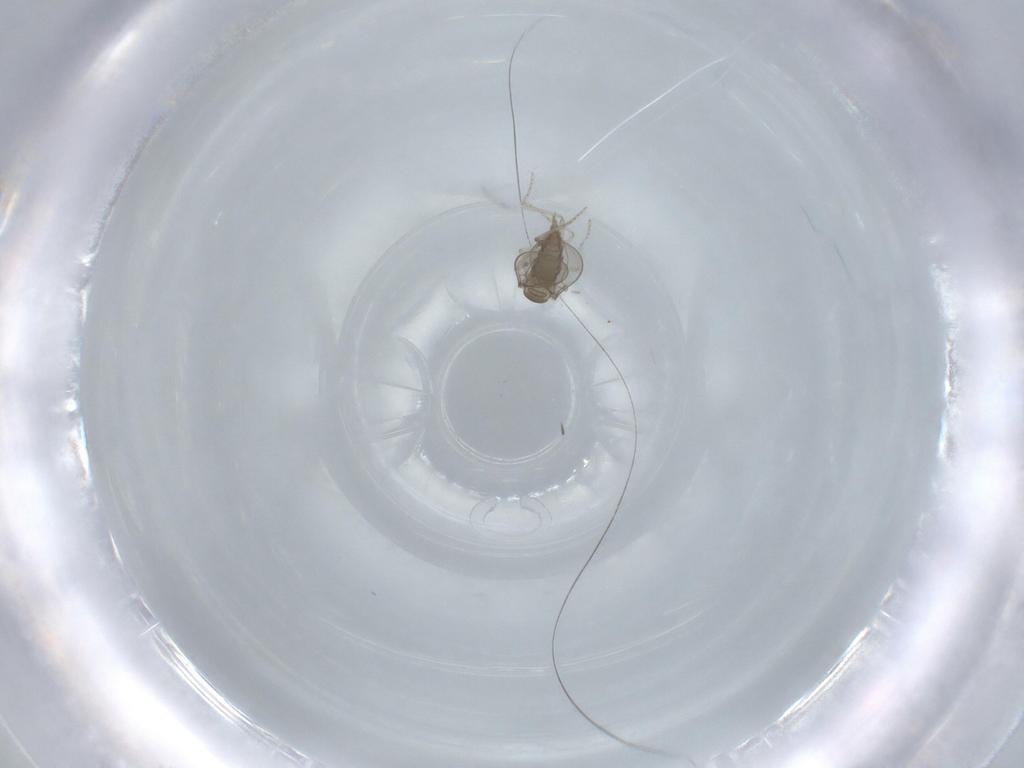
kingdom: Animalia
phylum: Arthropoda
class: Insecta
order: Diptera
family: Cecidomyiidae
